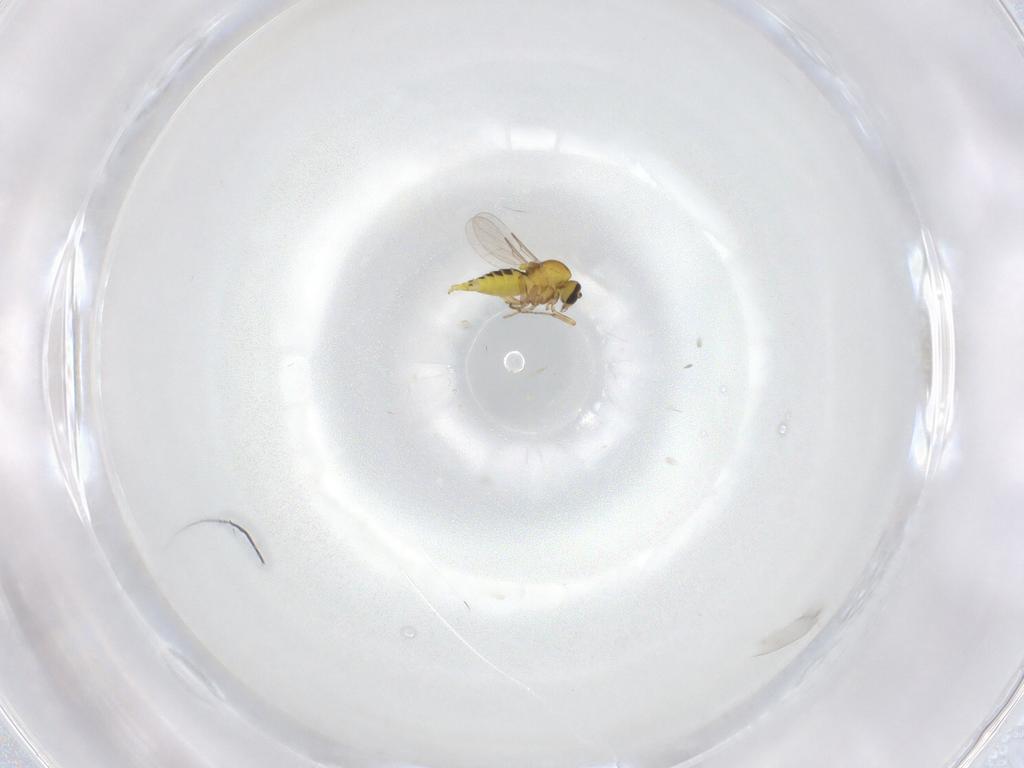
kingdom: Animalia
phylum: Arthropoda
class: Insecta
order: Diptera
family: Ceratopogonidae
